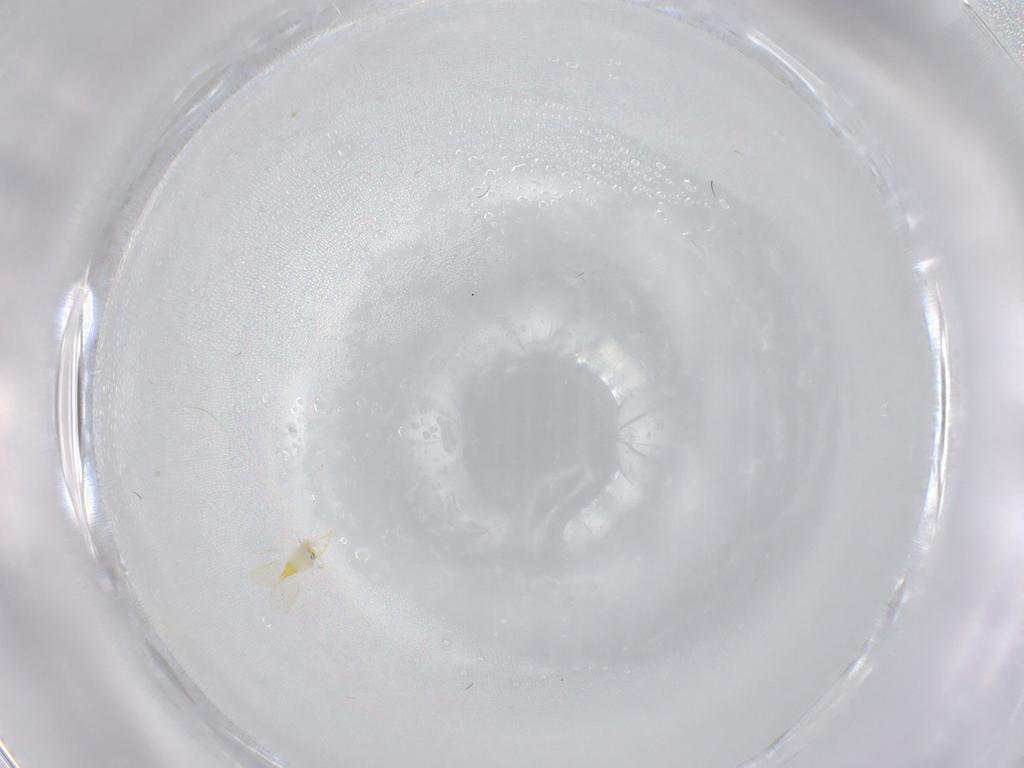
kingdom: Animalia
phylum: Arthropoda
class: Insecta
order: Hemiptera
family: Aleyrodidae
